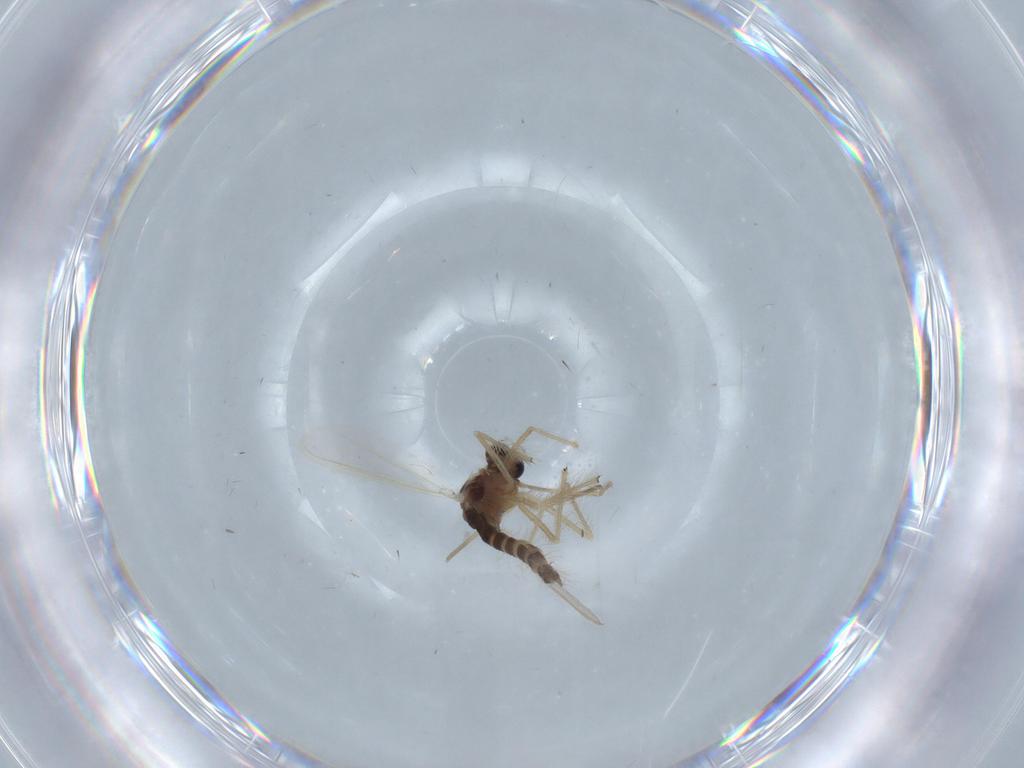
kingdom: Animalia
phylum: Arthropoda
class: Insecta
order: Diptera
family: Chironomidae
